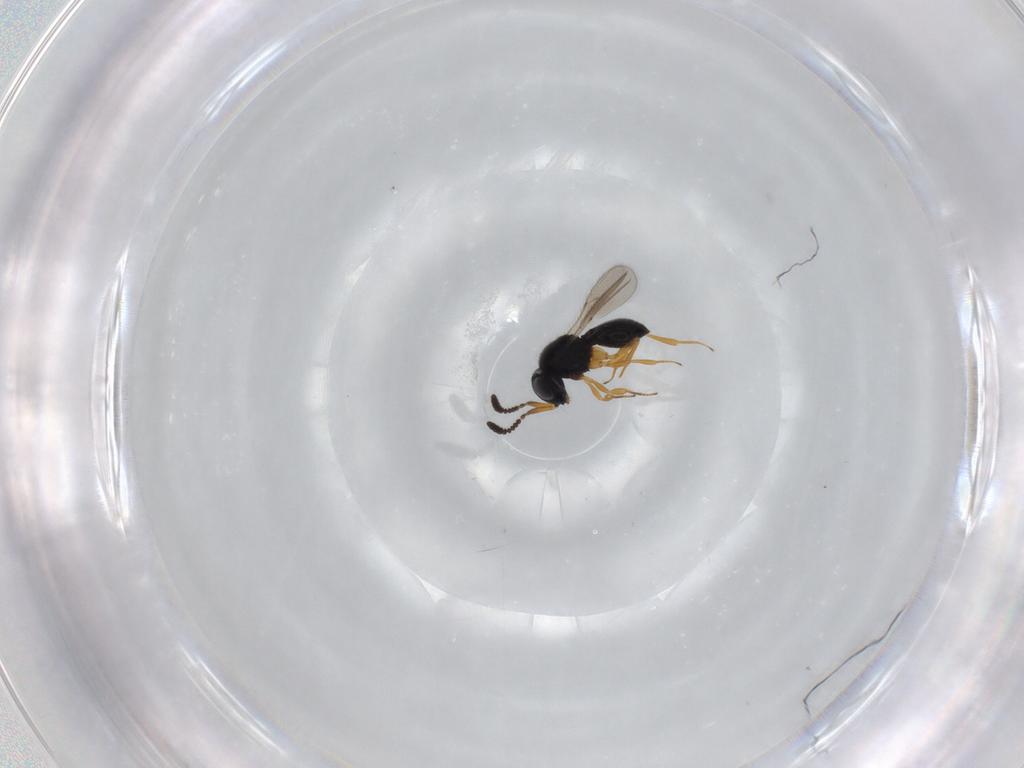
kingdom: Animalia
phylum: Arthropoda
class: Insecta
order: Hymenoptera
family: Scelionidae
